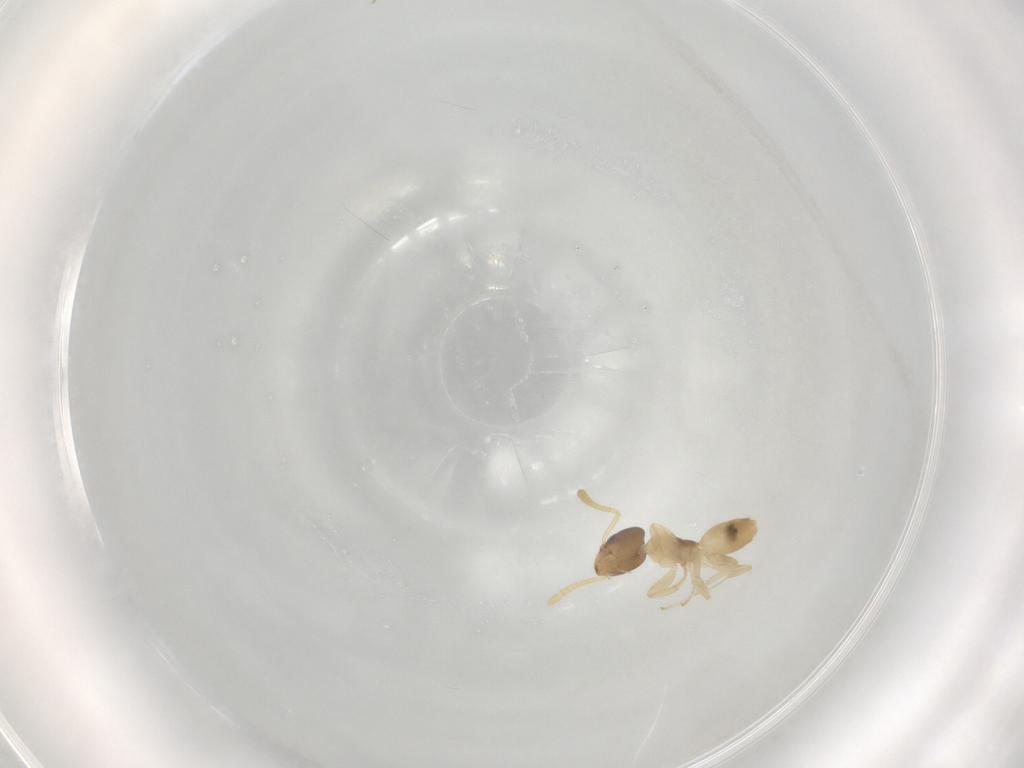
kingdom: Animalia
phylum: Arthropoda
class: Insecta
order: Hymenoptera
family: Formicidae
